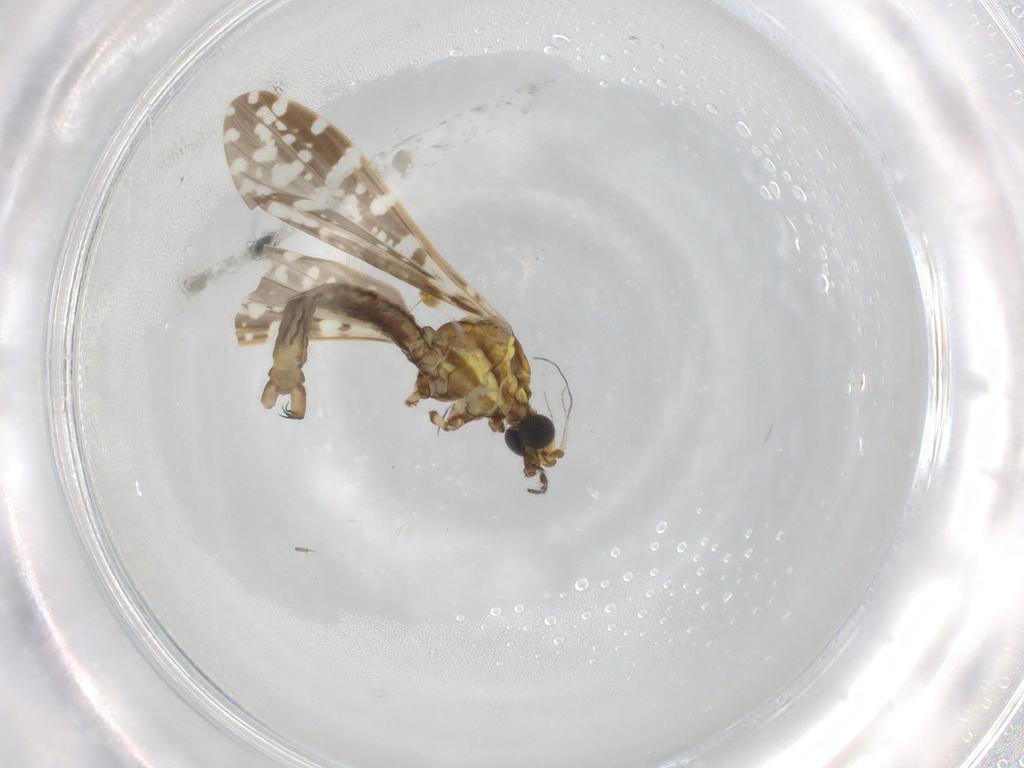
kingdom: Animalia
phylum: Arthropoda
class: Insecta
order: Diptera
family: Limoniidae
